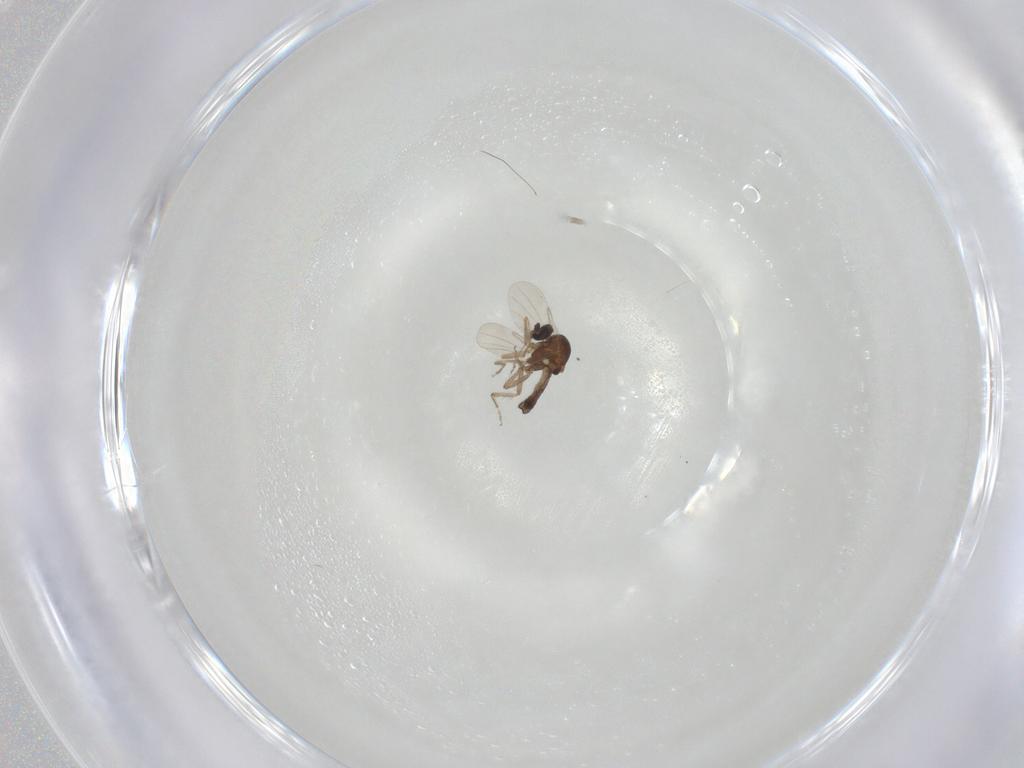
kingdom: Animalia
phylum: Arthropoda
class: Insecta
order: Diptera
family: Ceratopogonidae
